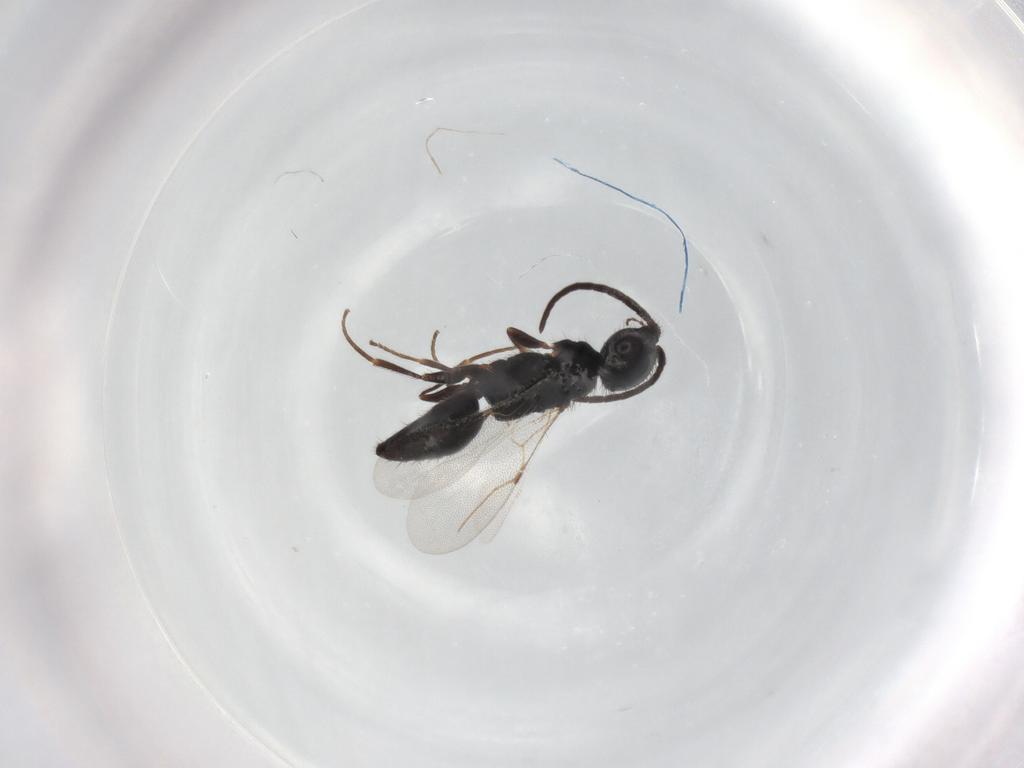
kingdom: Animalia
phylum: Arthropoda
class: Insecta
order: Hymenoptera
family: Bethylidae
